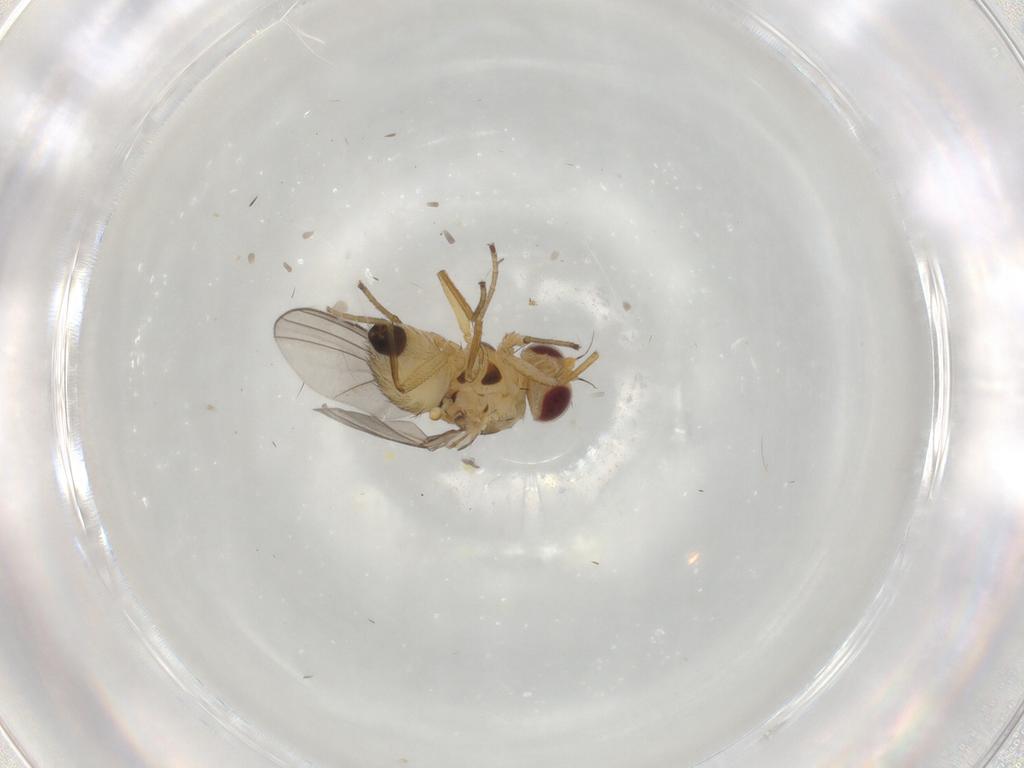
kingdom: Animalia
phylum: Arthropoda
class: Insecta
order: Diptera
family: Agromyzidae
